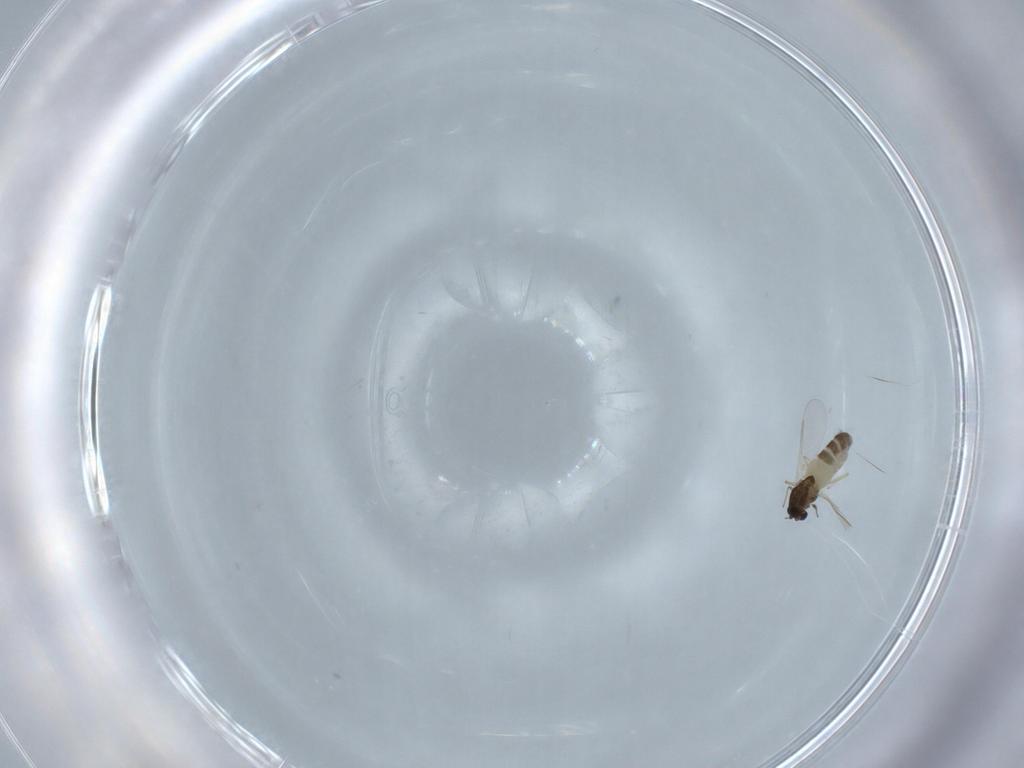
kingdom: Animalia
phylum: Arthropoda
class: Insecta
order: Diptera
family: Chironomidae
